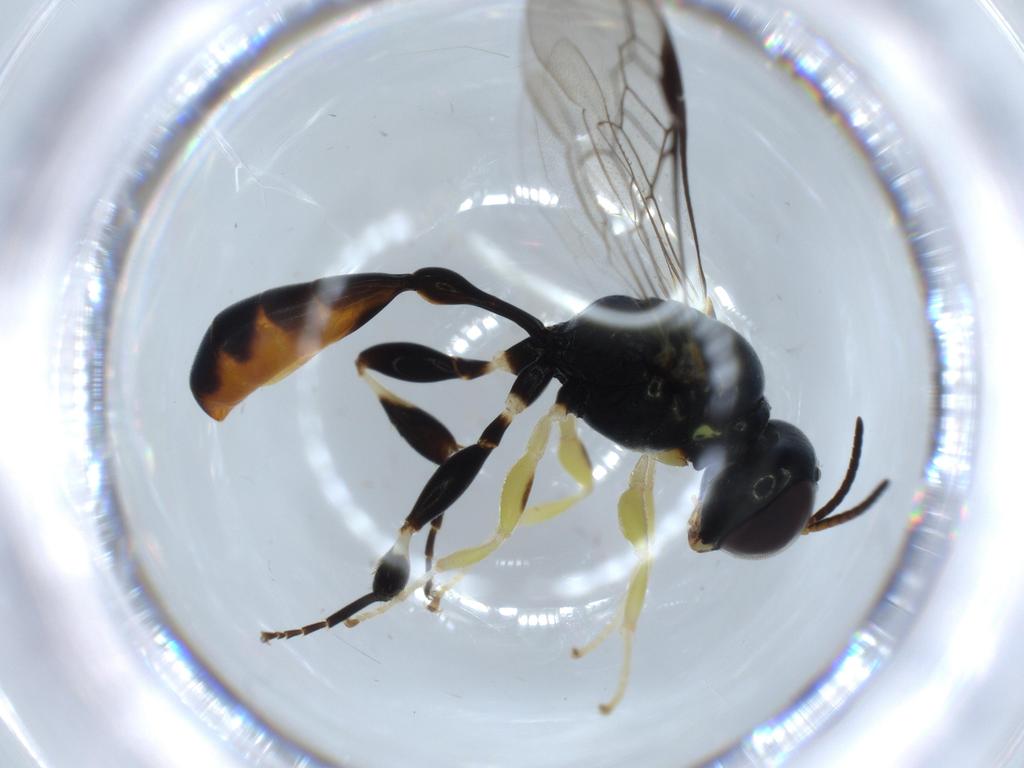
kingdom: Animalia
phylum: Arthropoda
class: Insecta
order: Hymenoptera
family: Crabronidae
